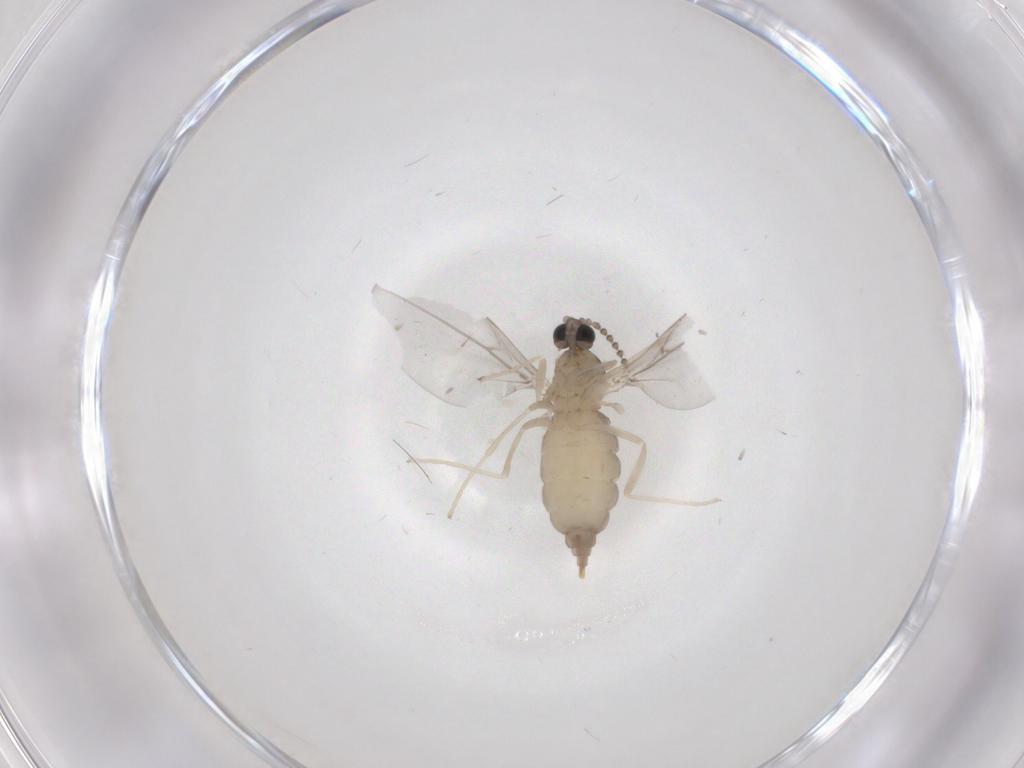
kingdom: Animalia
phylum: Arthropoda
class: Insecta
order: Diptera
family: Cecidomyiidae
